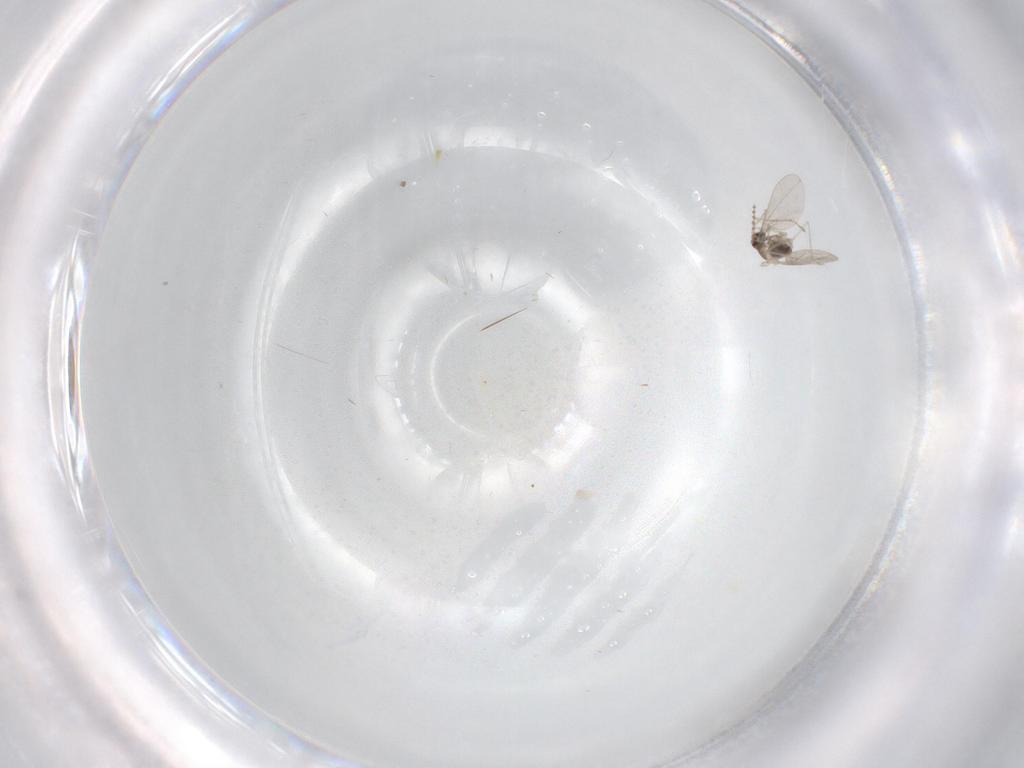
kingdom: Animalia
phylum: Arthropoda
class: Insecta
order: Diptera
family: Cecidomyiidae
